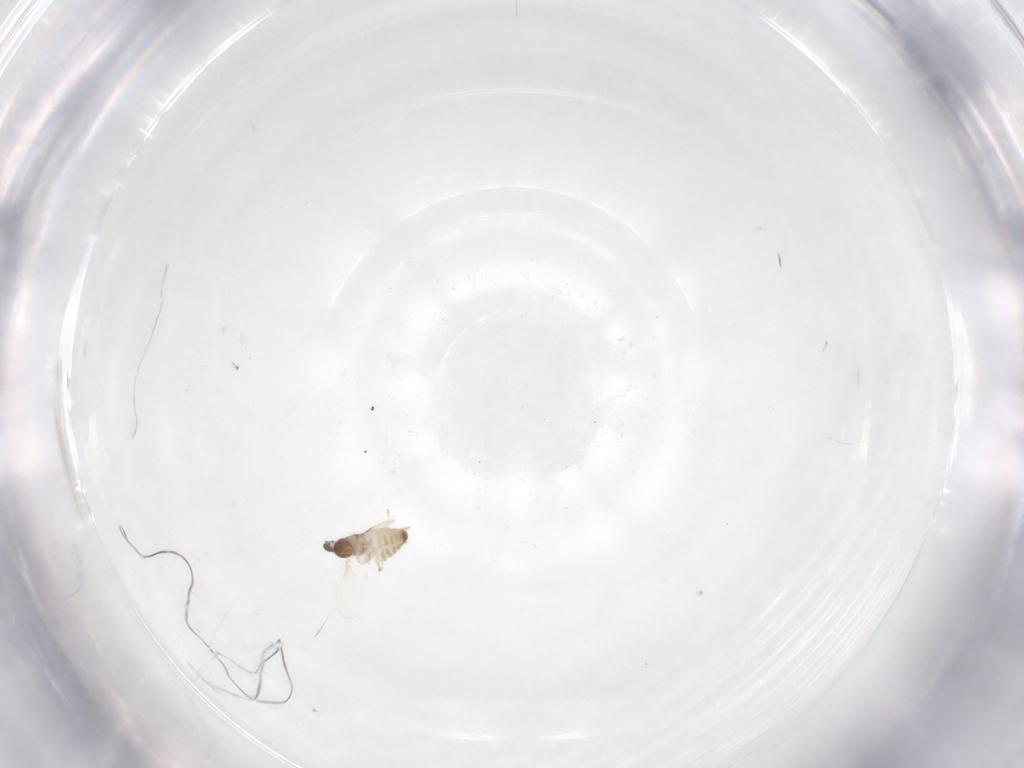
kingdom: Animalia
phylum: Arthropoda
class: Insecta
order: Diptera
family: Cecidomyiidae
